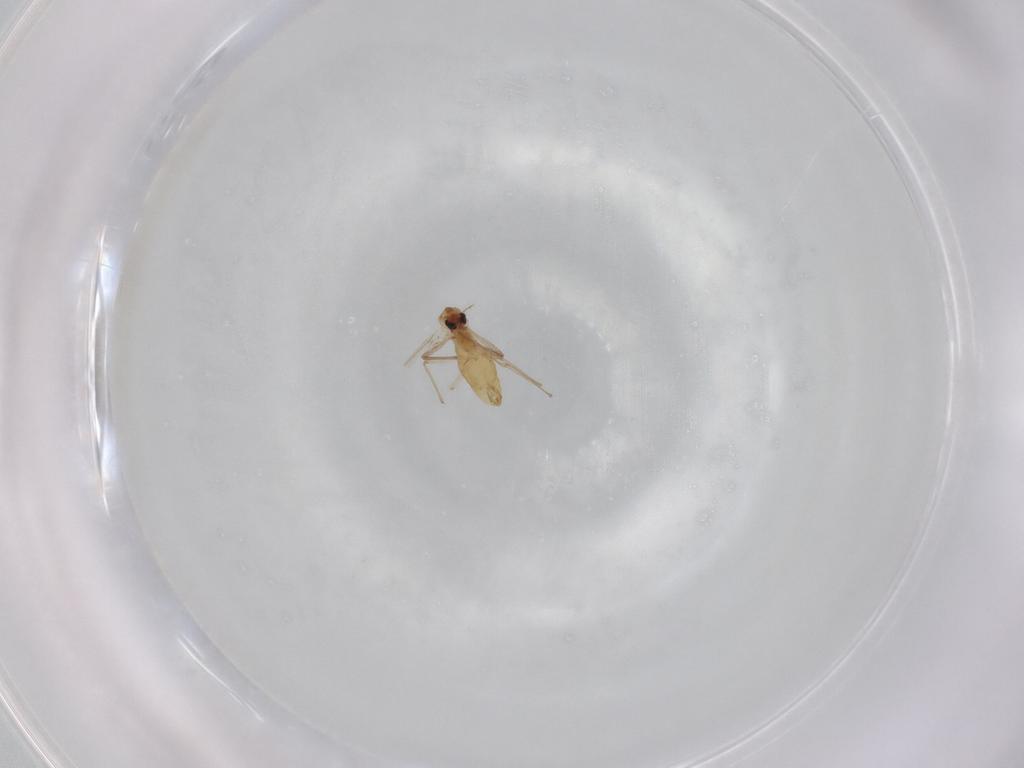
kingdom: Animalia
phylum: Arthropoda
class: Insecta
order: Diptera
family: Chironomidae
